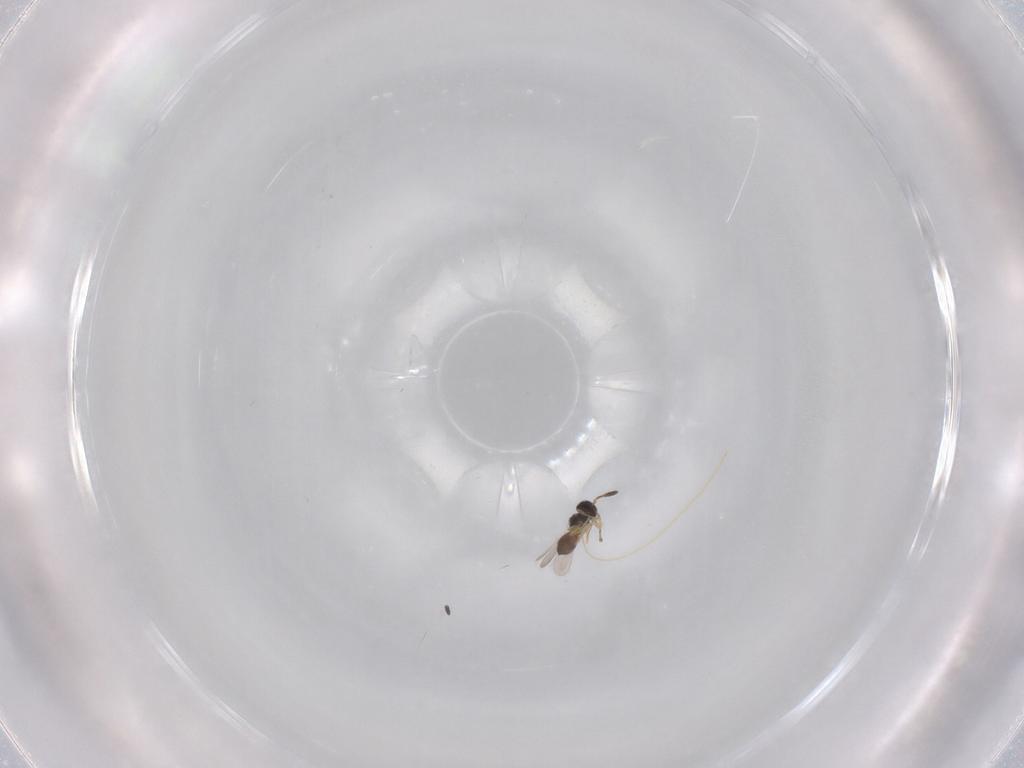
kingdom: Animalia
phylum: Arthropoda
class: Insecta
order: Hymenoptera
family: Scelionidae
